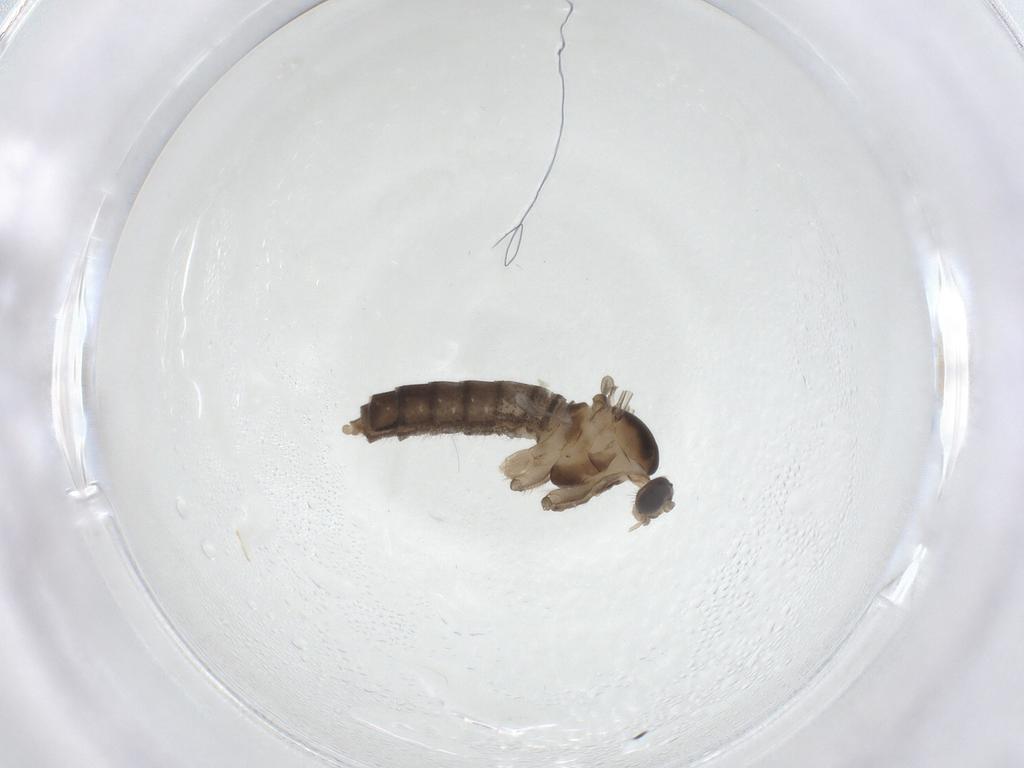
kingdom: Animalia
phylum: Arthropoda
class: Insecta
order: Diptera
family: Cecidomyiidae
